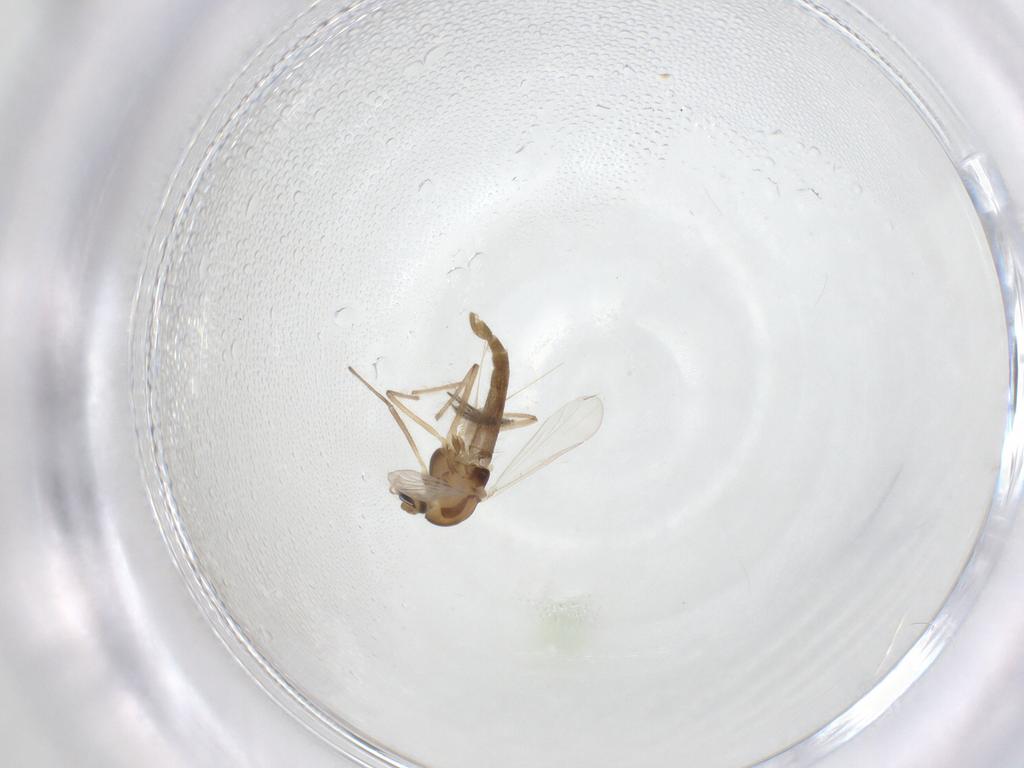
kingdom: Animalia
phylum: Arthropoda
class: Insecta
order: Diptera
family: Chironomidae
